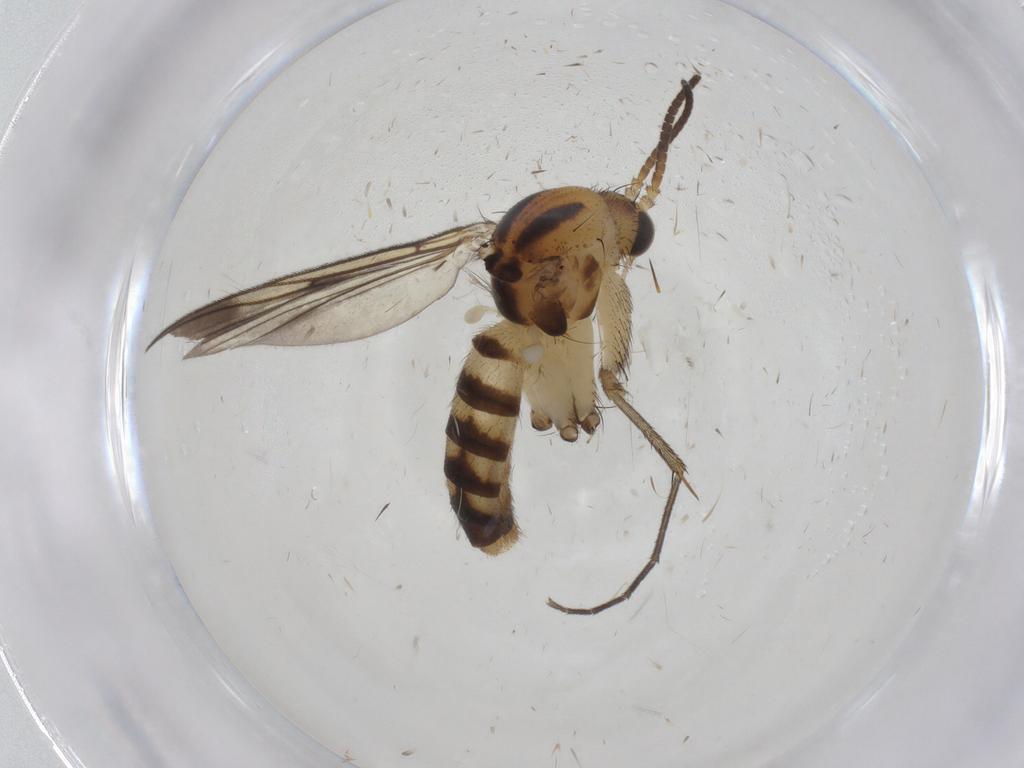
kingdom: Animalia
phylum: Arthropoda
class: Insecta
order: Diptera
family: Mycetophilidae
